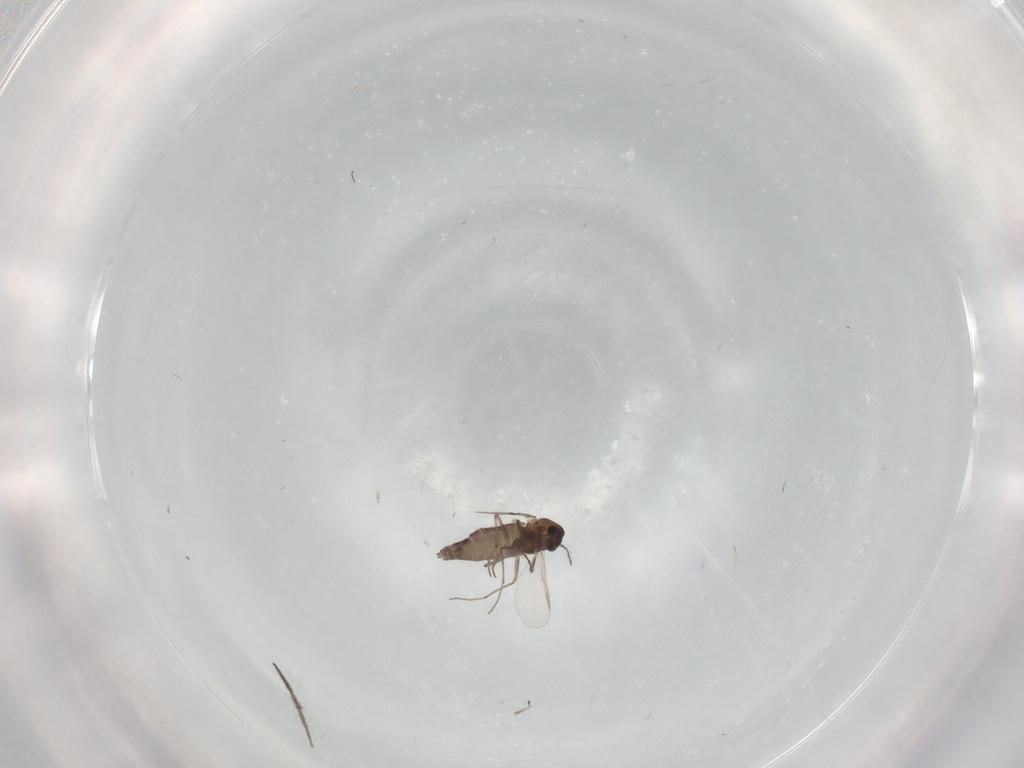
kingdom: Animalia
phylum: Arthropoda
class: Insecta
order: Diptera
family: Chironomidae
